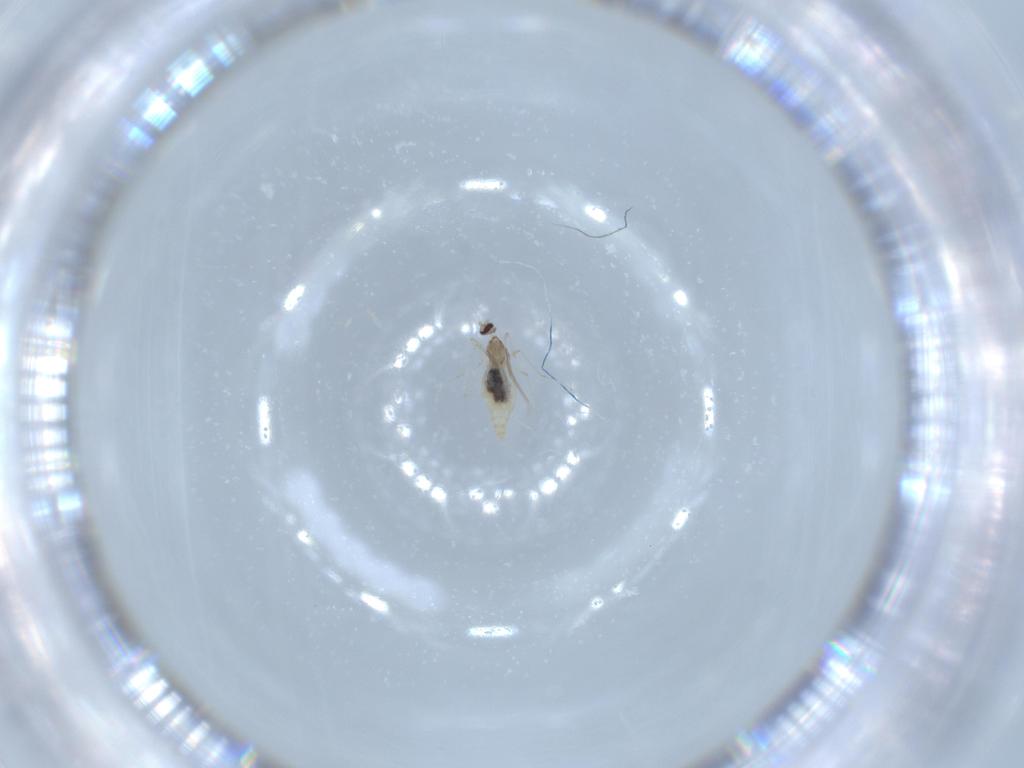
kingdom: Animalia
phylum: Arthropoda
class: Insecta
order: Diptera
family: Cecidomyiidae
